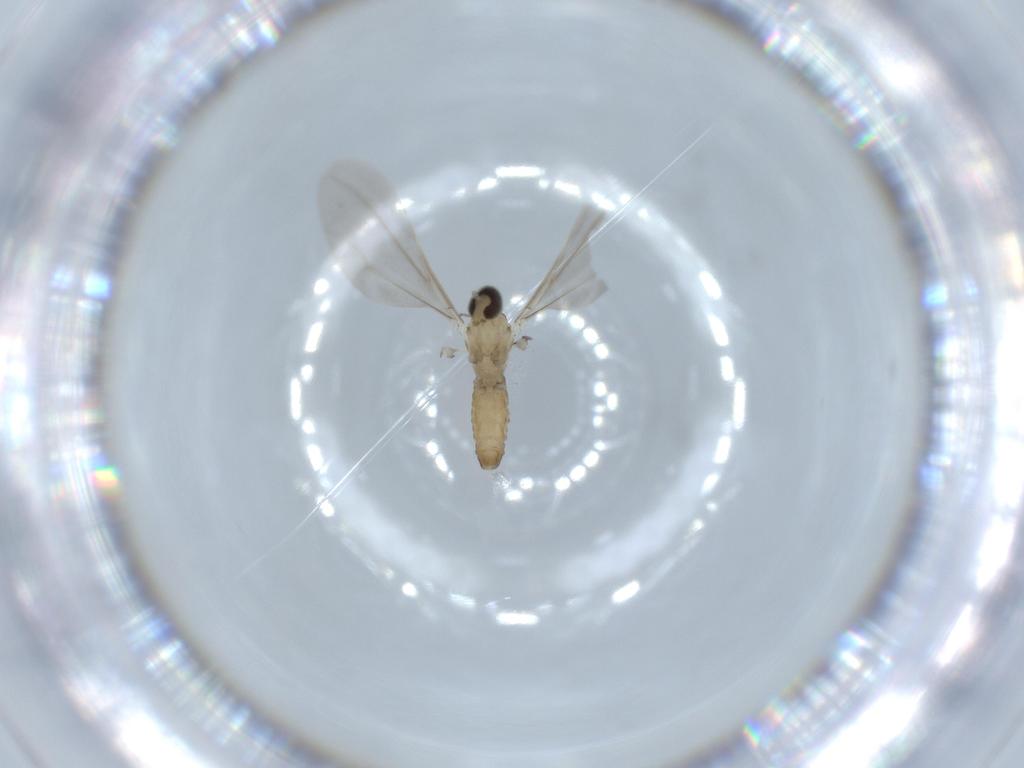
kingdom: Animalia
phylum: Arthropoda
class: Insecta
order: Diptera
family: Cecidomyiidae
